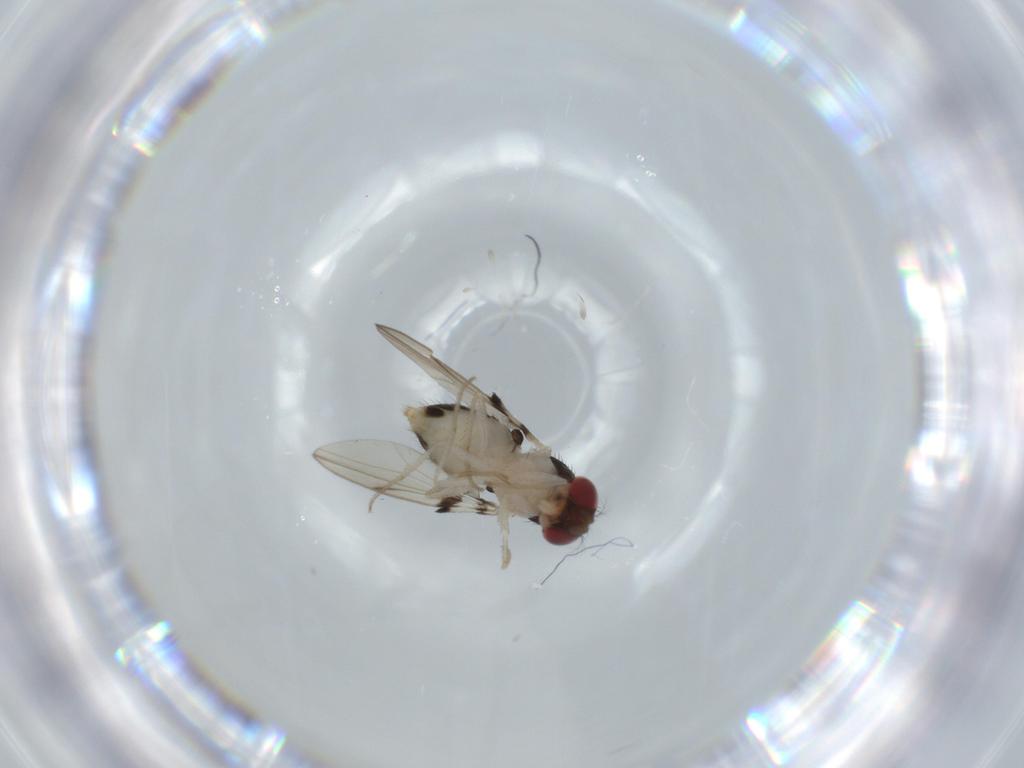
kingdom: Animalia
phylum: Arthropoda
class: Insecta
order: Diptera
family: Drosophilidae
